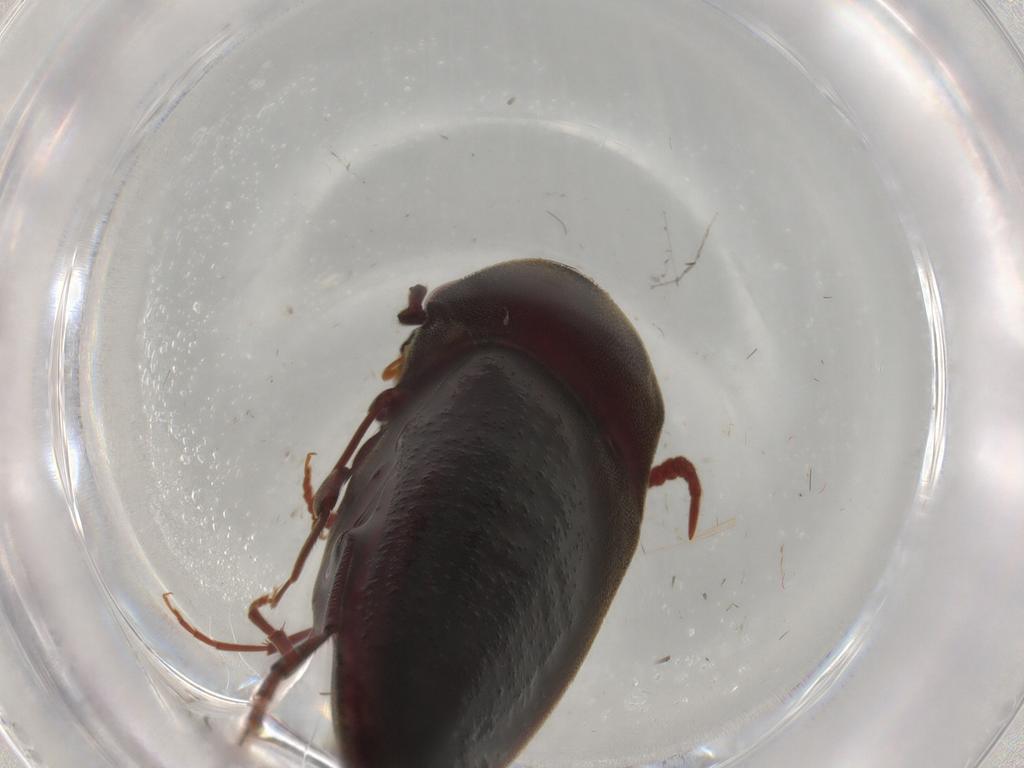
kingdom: Animalia
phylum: Arthropoda
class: Insecta
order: Coleoptera
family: Eucnemidae
